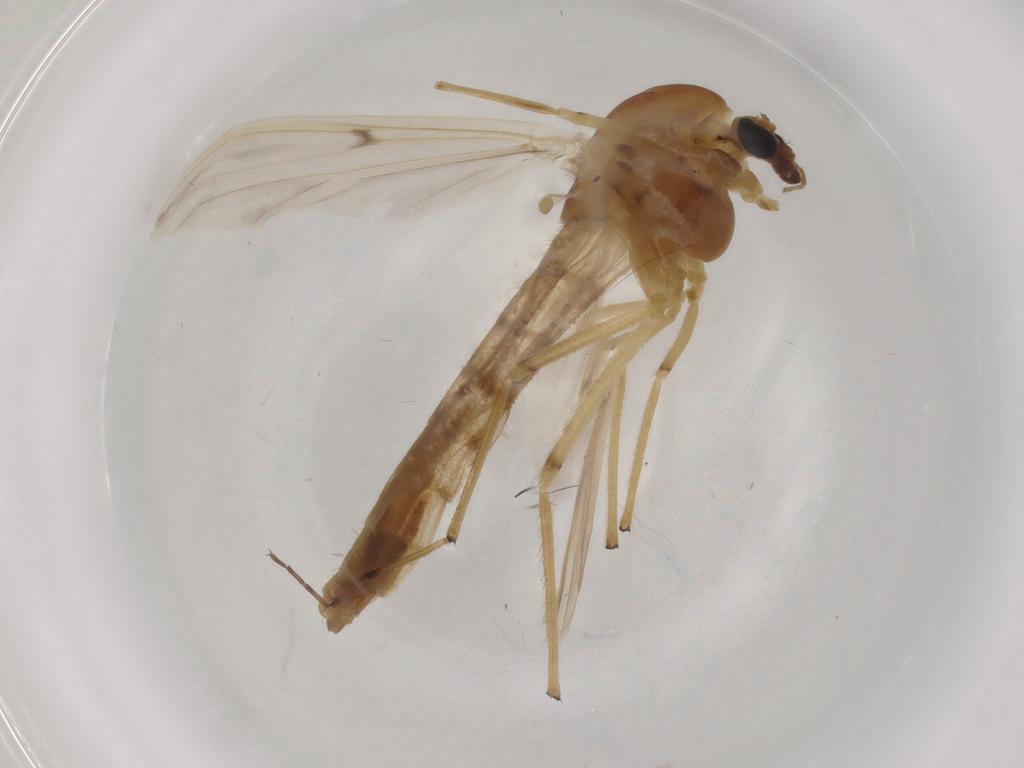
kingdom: Animalia
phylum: Arthropoda
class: Insecta
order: Diptera
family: Chironomidae
